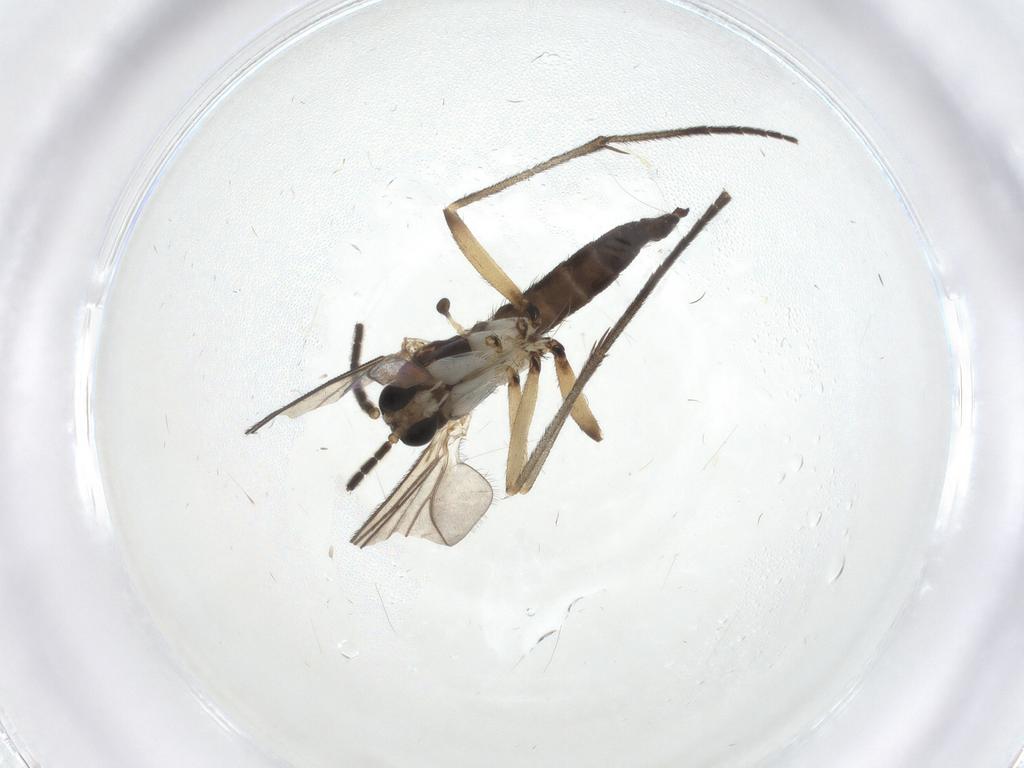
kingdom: Animalia
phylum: Arthropoda
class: Insecta
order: Diptera
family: Sciaridae
